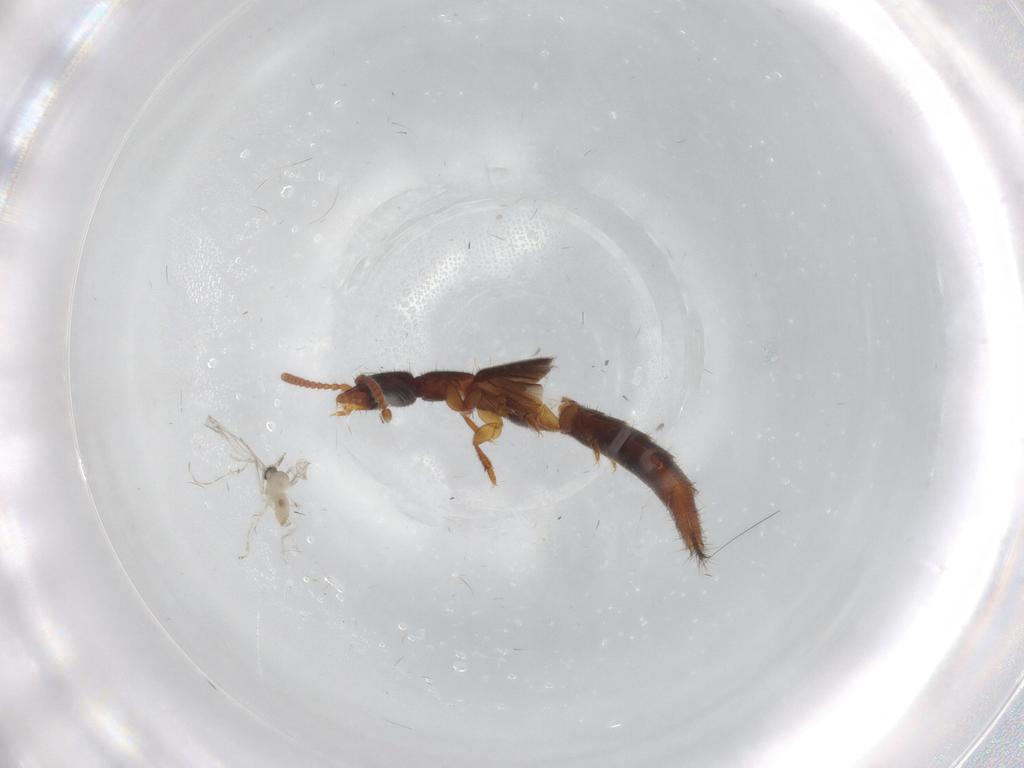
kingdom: Animalia
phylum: Arthropoda
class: Insecta
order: Coleoptera
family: Staphylinidae
